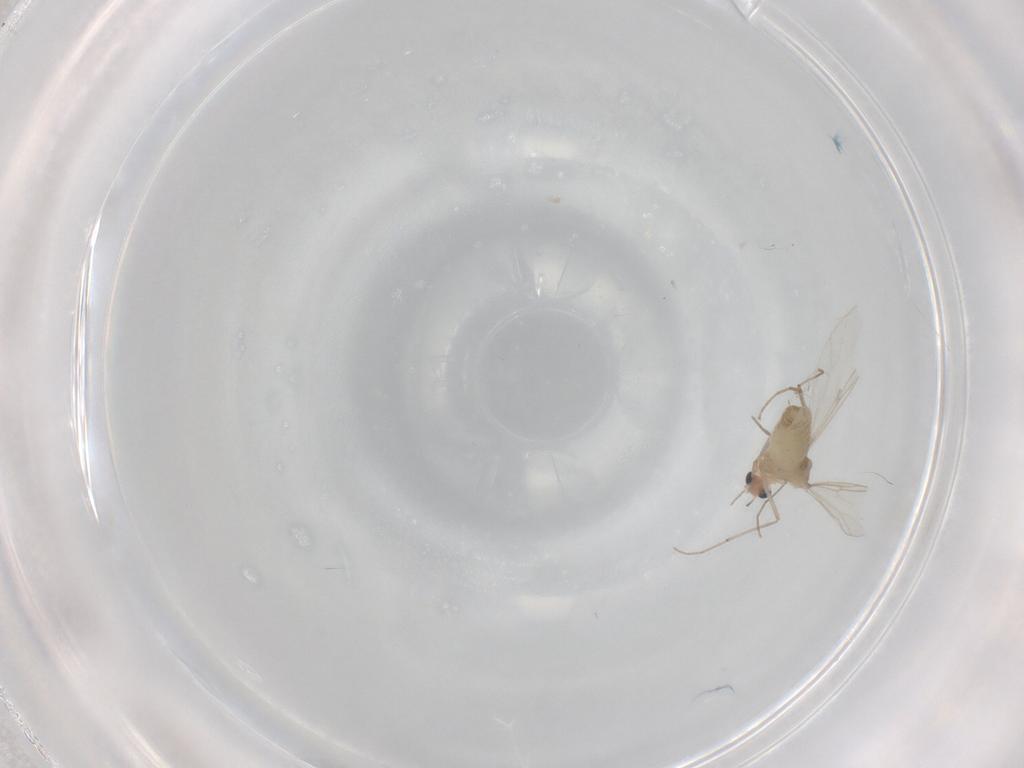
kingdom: Animalia
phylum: Arthropoda
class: Insecta
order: Diptera
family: Chironomidae
